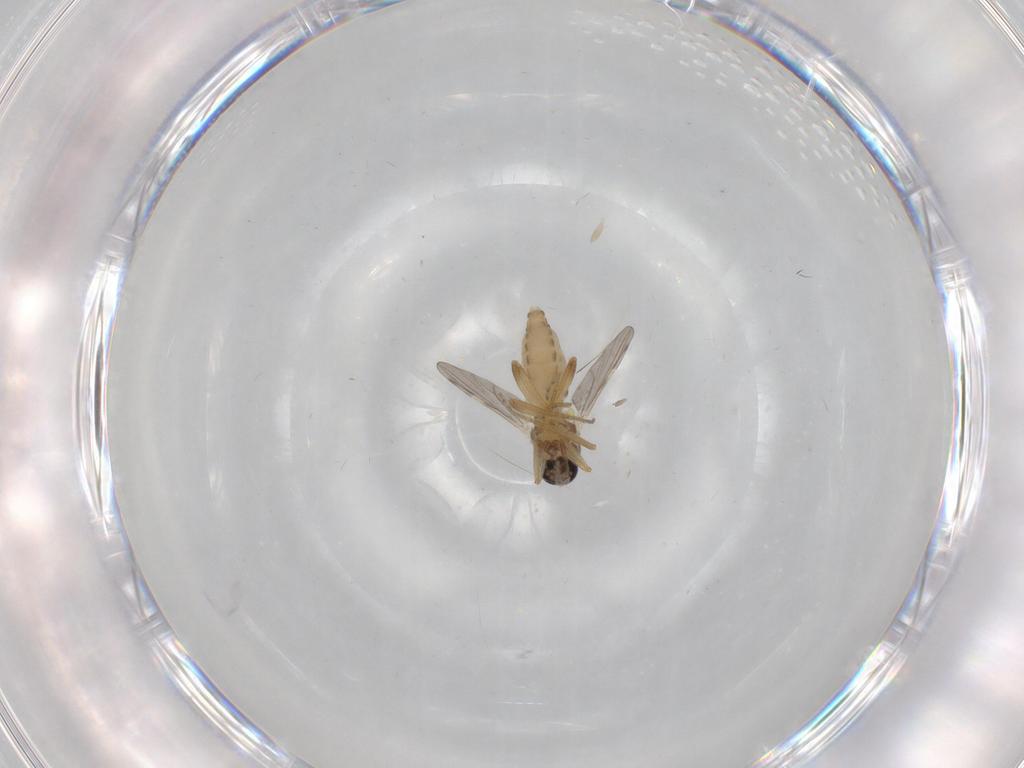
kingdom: Animalia
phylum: Arthropoda
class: Insecta
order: Diptera
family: Ceratopogonidae
